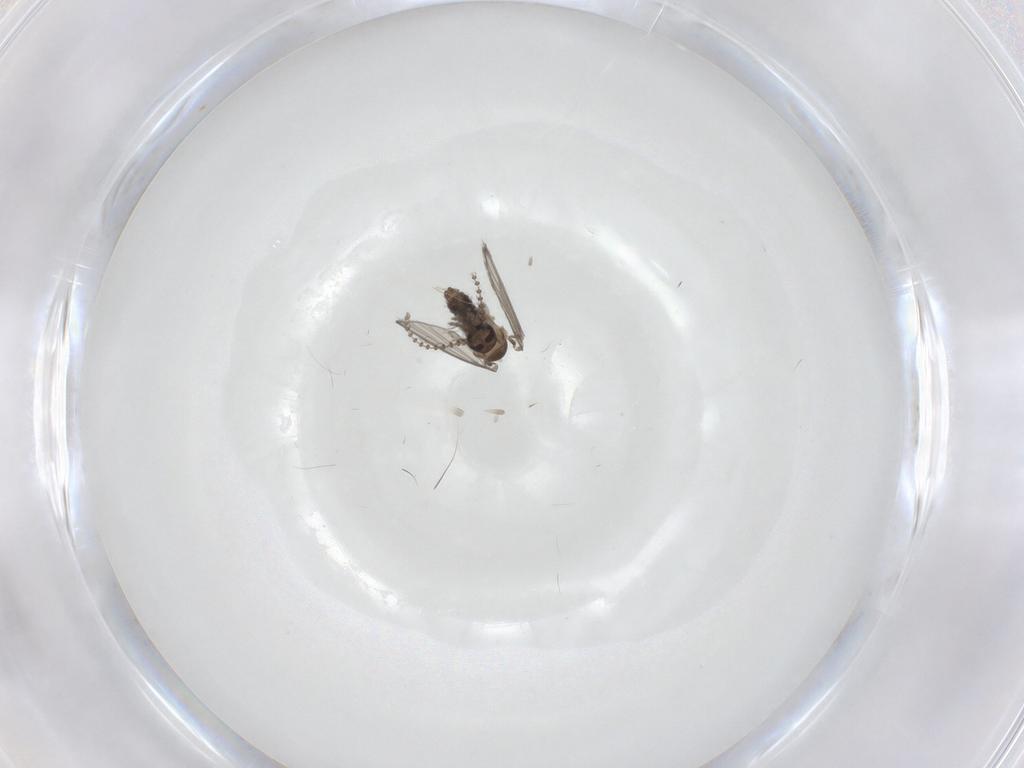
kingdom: Animalia
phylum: Arthropoda
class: Insecta
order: Diptera
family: Psychodidae
